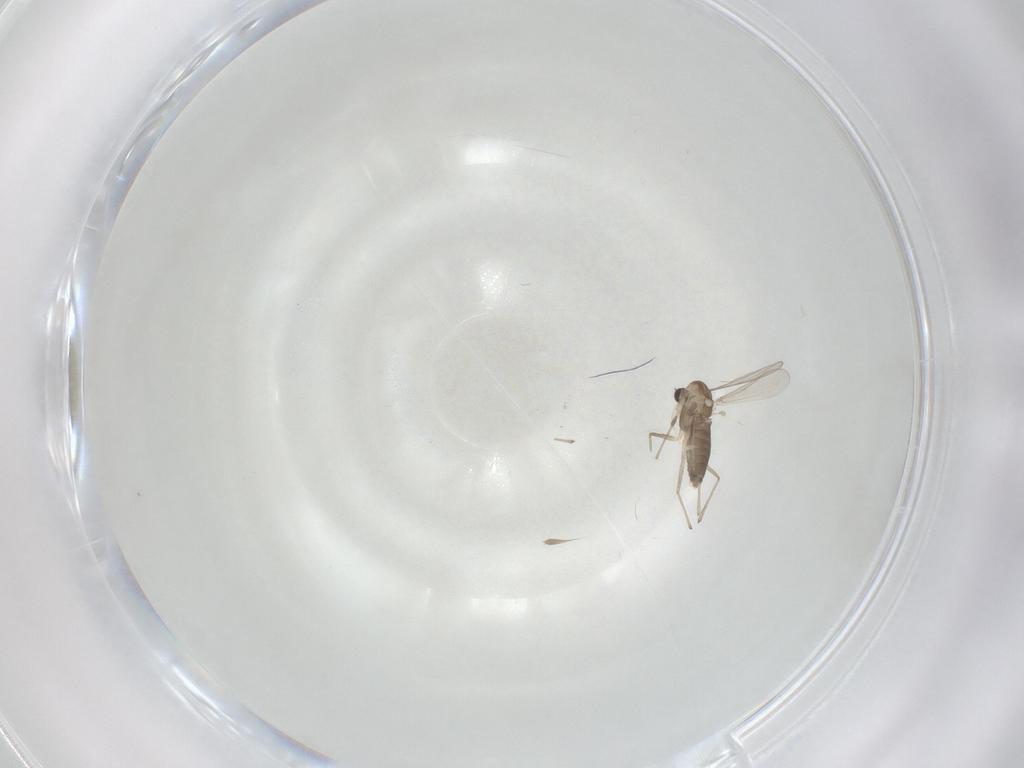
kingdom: Animalia
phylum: Arthropoda
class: Insecta
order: Diptera
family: Chironomidae
